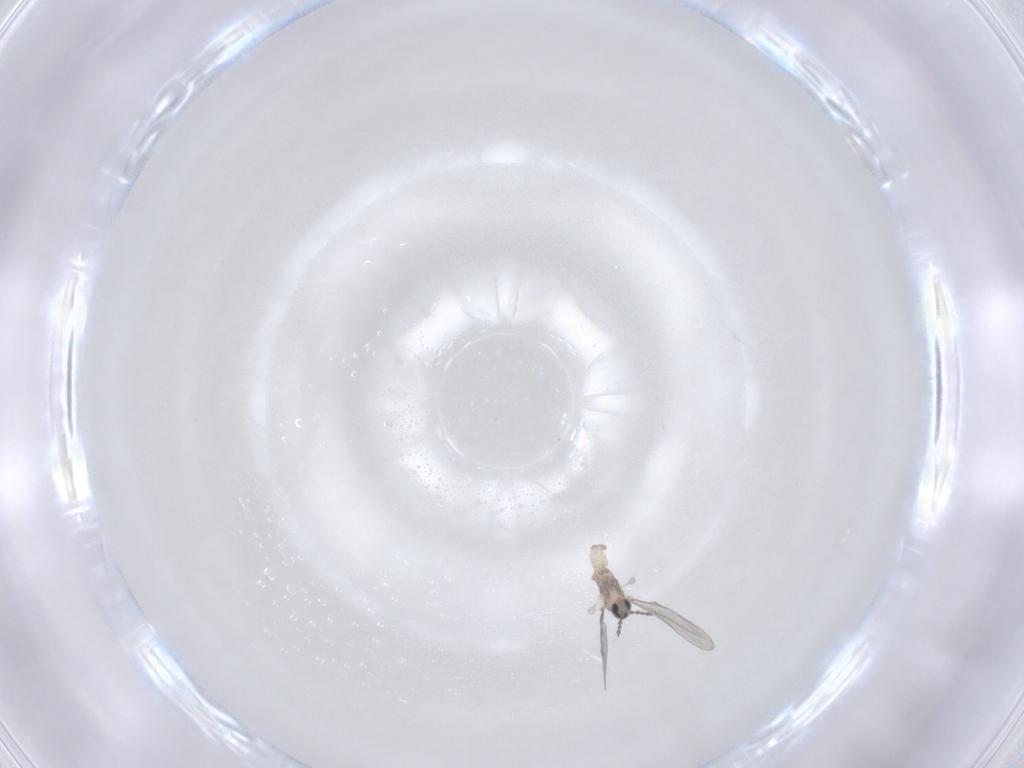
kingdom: Animalia
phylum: Arthropoda
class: Insecta
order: Diptera
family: Cecidomyiidae
